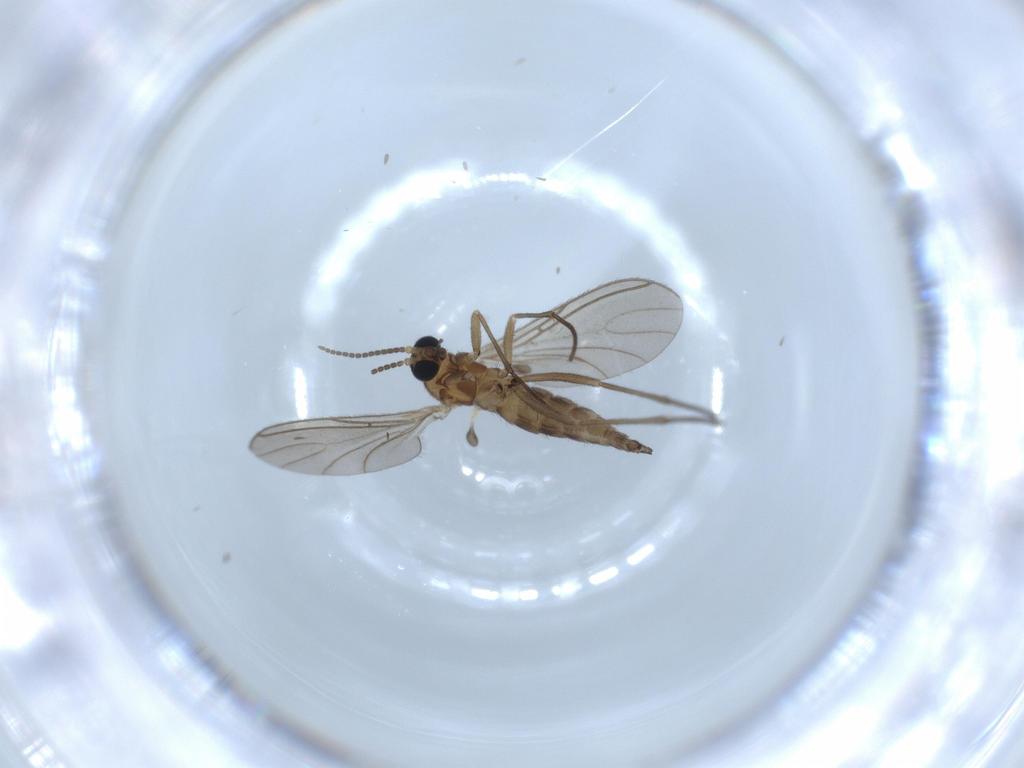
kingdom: Animalia
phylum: Arthropoda
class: Insecta
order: Diptera
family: Sciaridae
